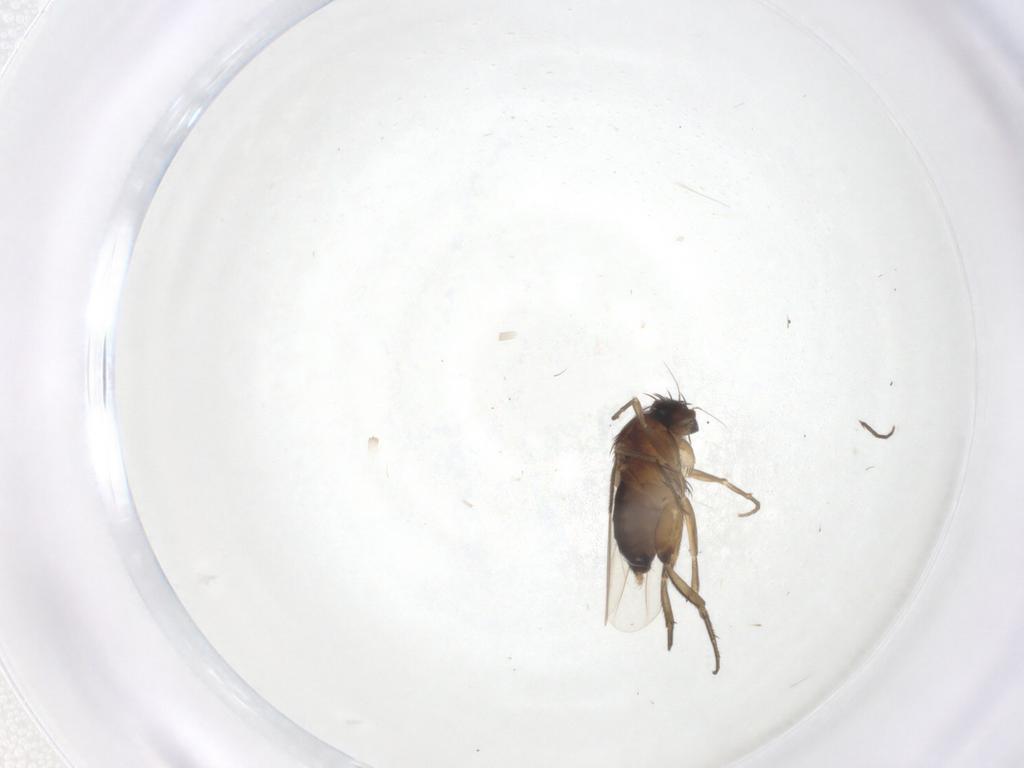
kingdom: Animalia
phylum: Arthropoda
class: Insecta
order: Diptera
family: Phoridae
